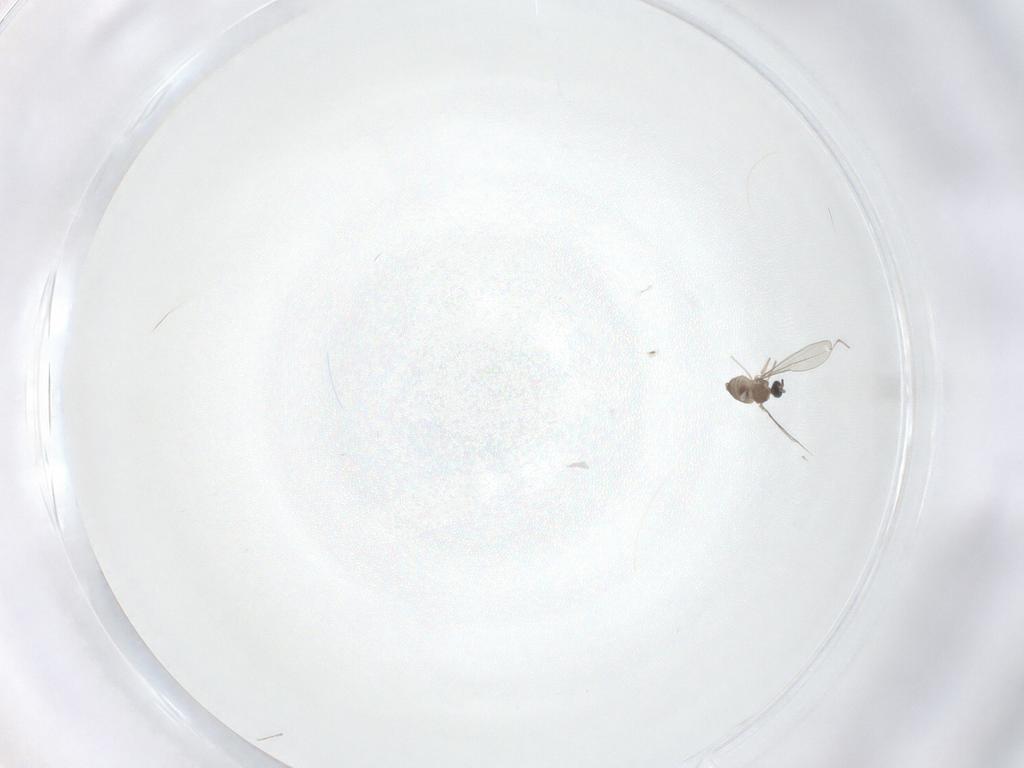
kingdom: Animalia
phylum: Arthropoda
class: Insecta
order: Diptera
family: Cecidomyiidae
